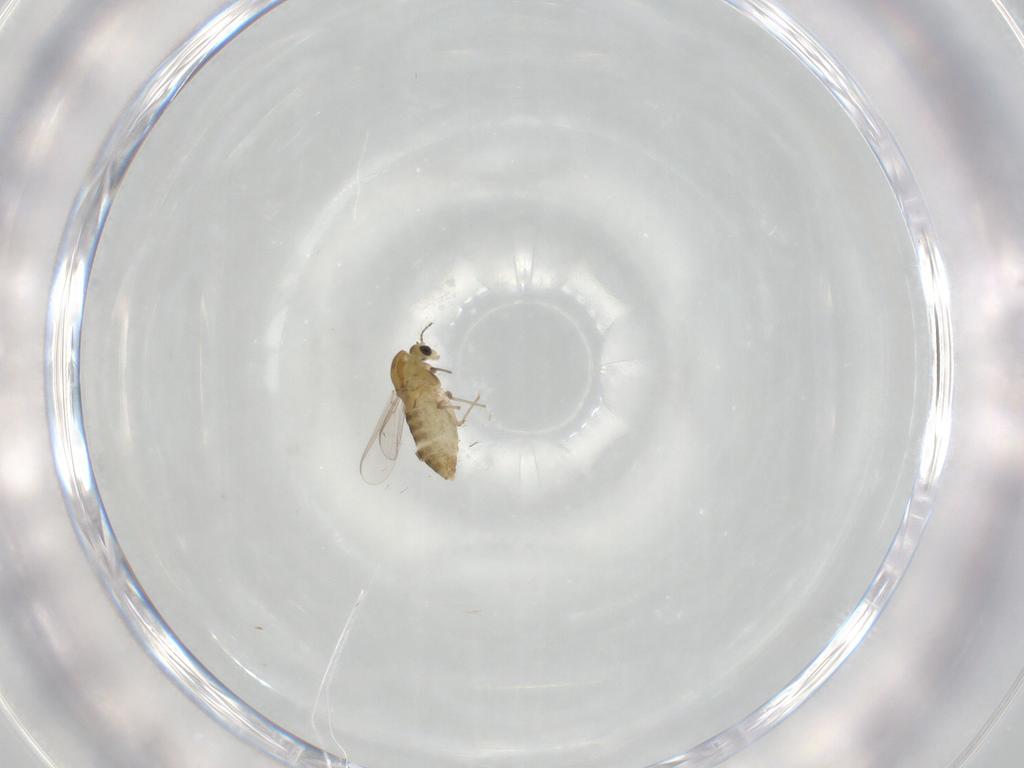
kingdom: Animalia
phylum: Arthropoda
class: Insecta
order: Diptera
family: Chironomidae
